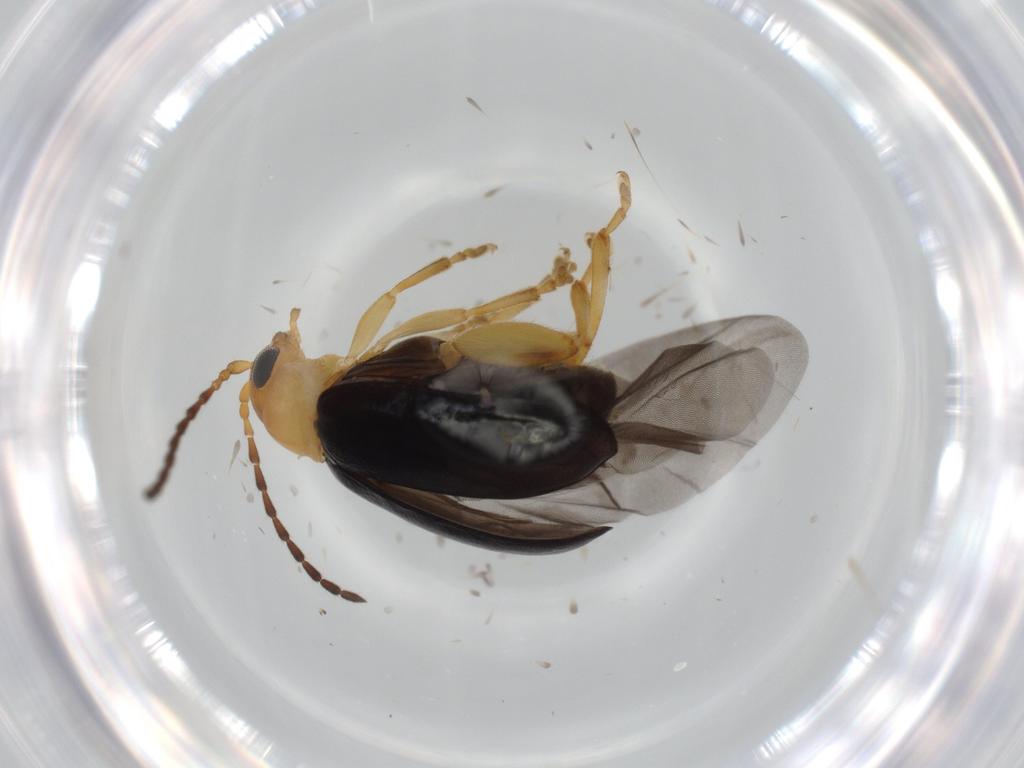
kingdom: Animalia
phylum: Arthropoda
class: Insecta
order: Coleoptera
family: Chrysomelidae
